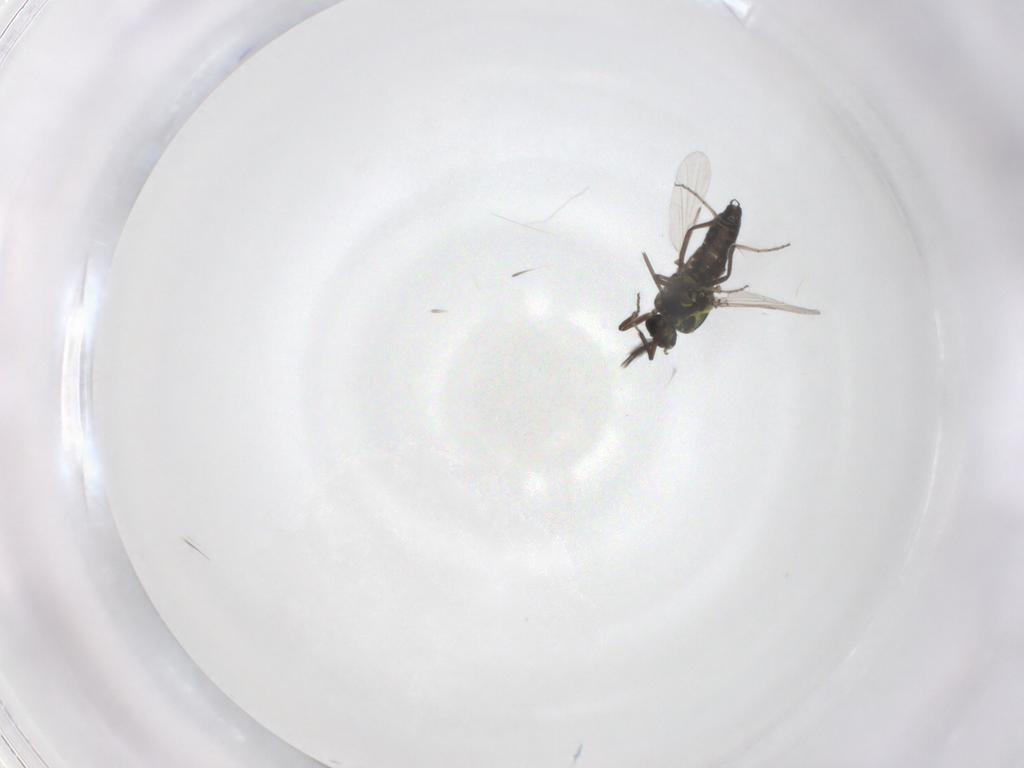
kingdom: Animalia
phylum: Arthropoda
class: Insecta
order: Diptera
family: Ceratopogonidae
